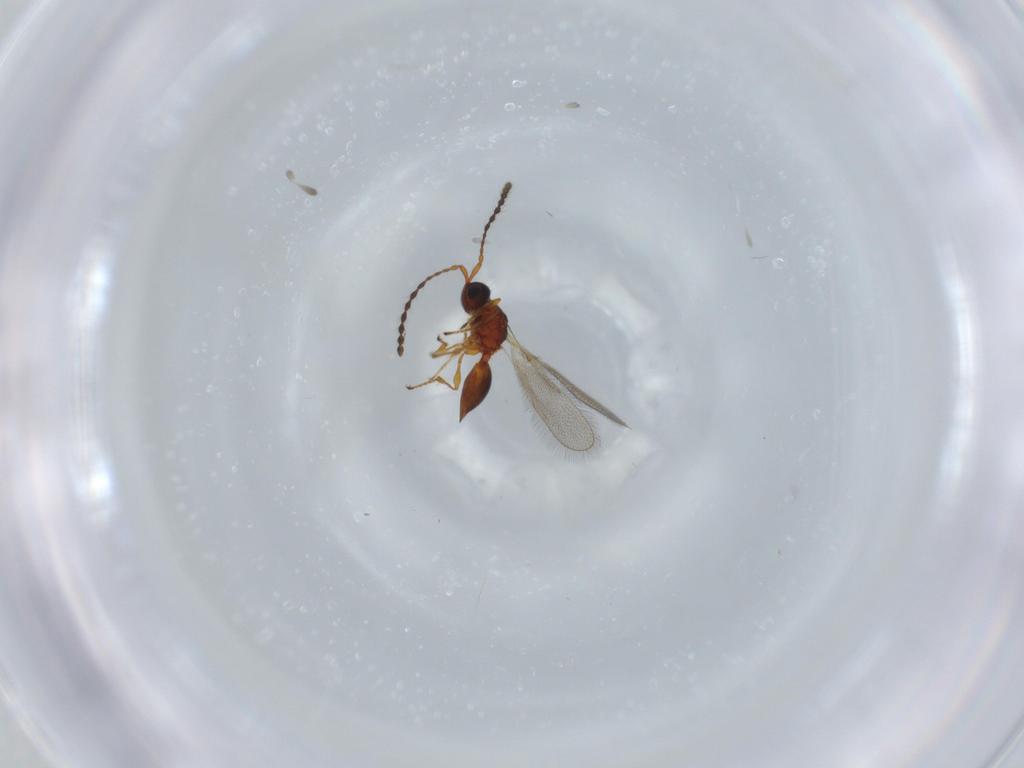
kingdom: Animalia
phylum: Arthropoda
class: Insecta
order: Hymenoptera
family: Diapriidae
